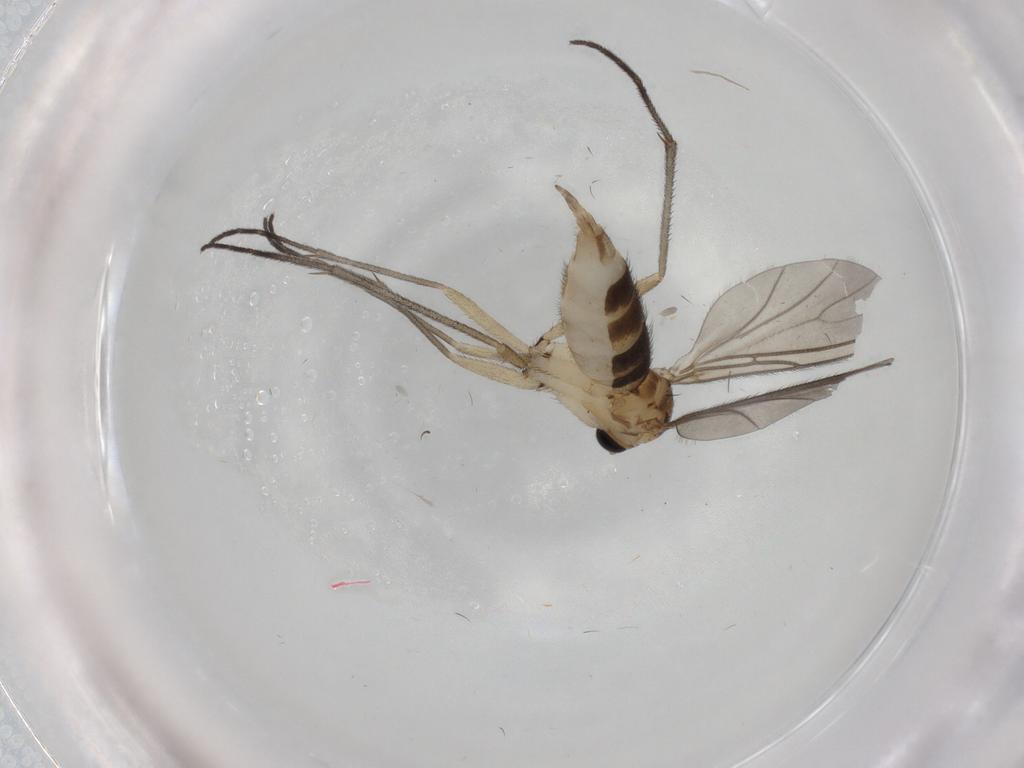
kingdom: Animalia
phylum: Arthropoda
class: Insecta
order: Diptera
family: Sciaridae
